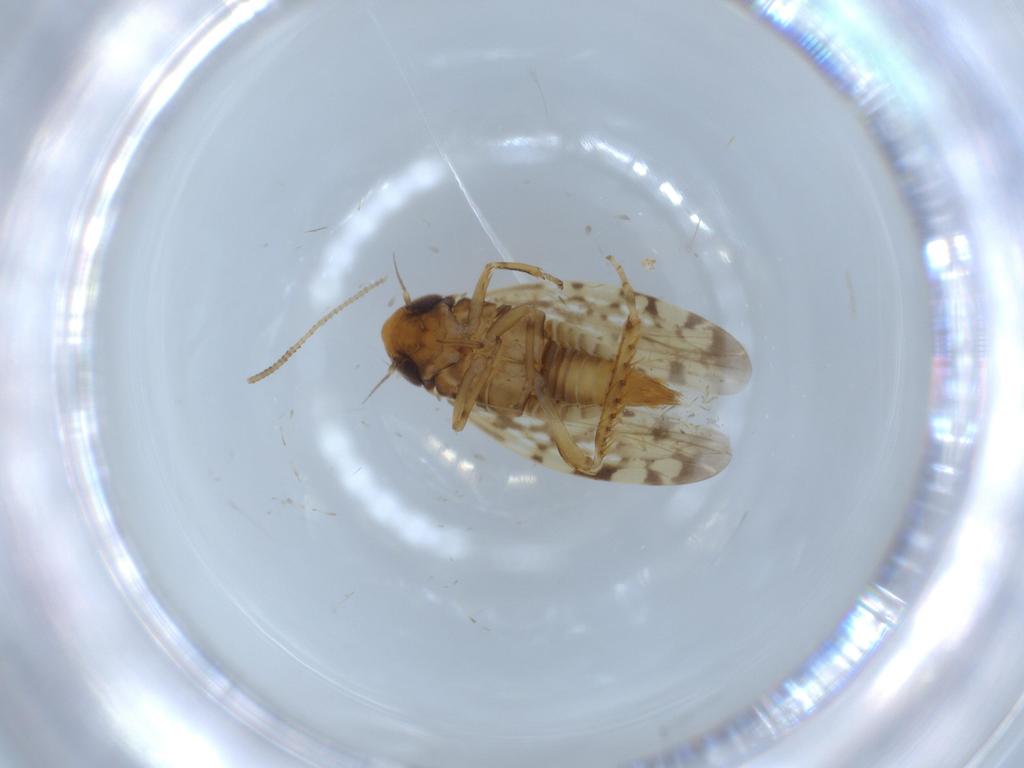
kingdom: Animalia
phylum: Arthropoda
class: Insecta
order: Hemiptera
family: Cicadellidae
